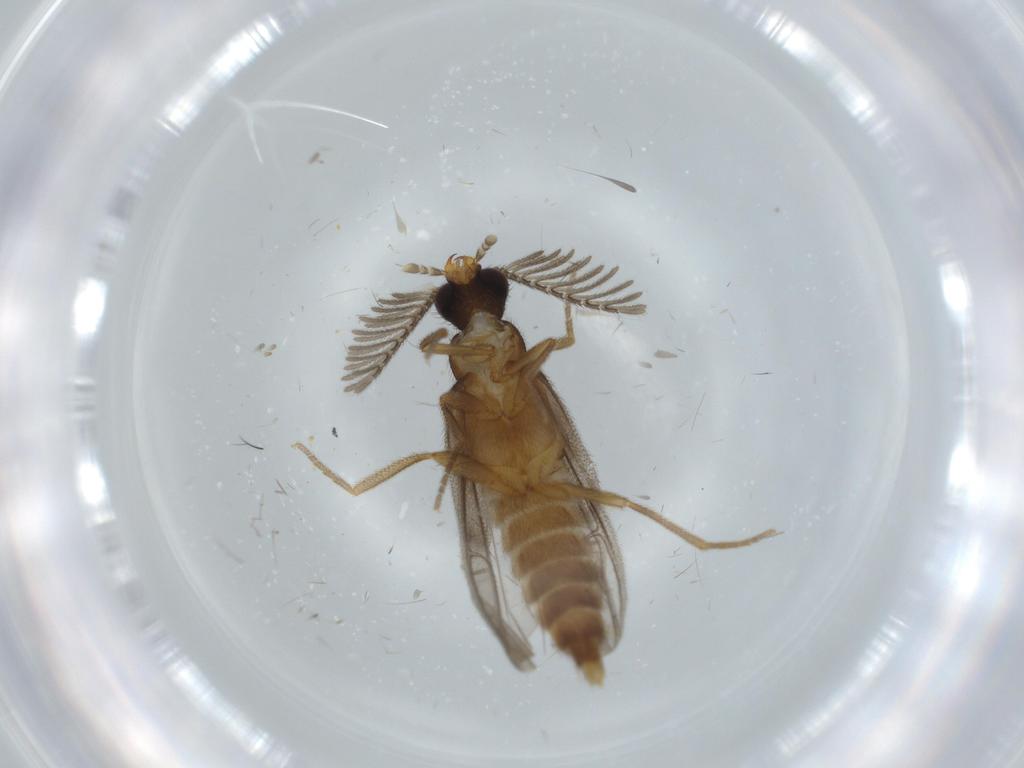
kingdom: Animalia
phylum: Arthropoda
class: Insecta
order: Coleoptera
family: Chrysomelidae
